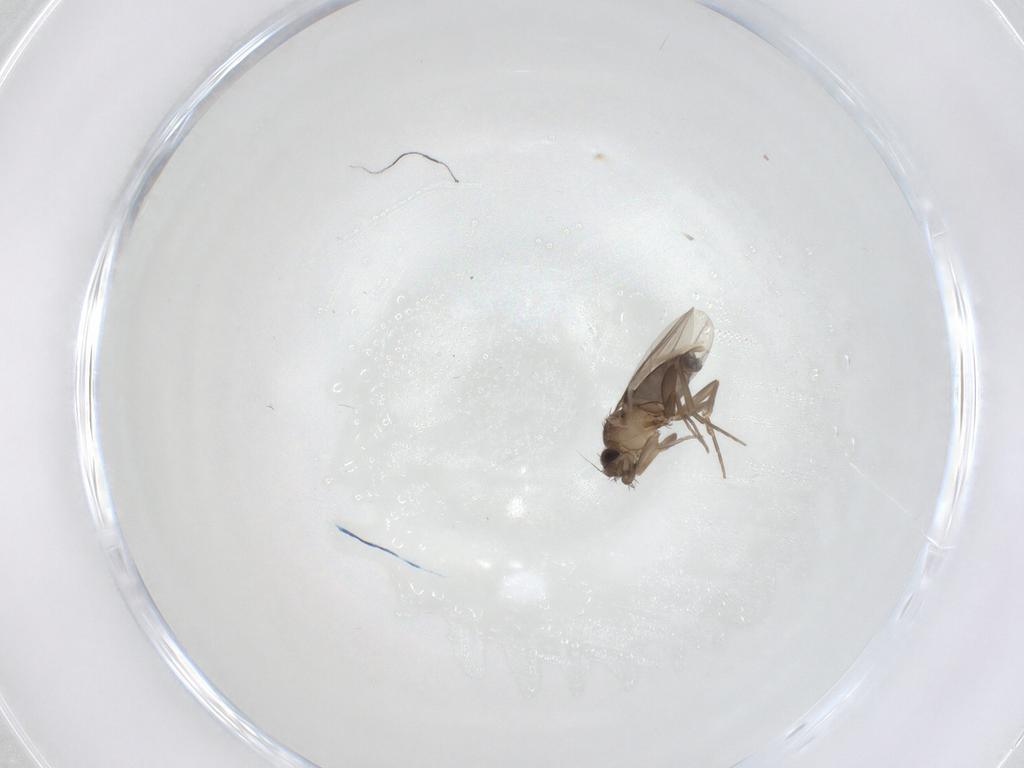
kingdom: Animalia
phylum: Arthropoda
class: Insecta
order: Diptera
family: Phoridae
